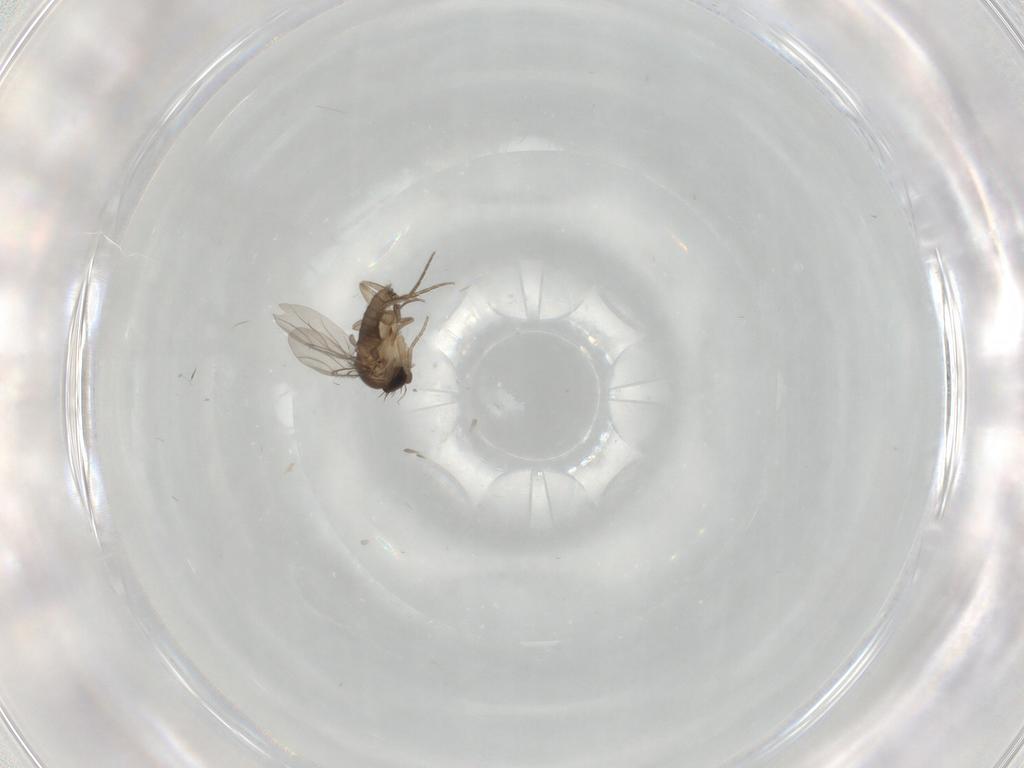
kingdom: Animalia
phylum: Arthropoda
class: Insecta
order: Diptera
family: Phoridae
